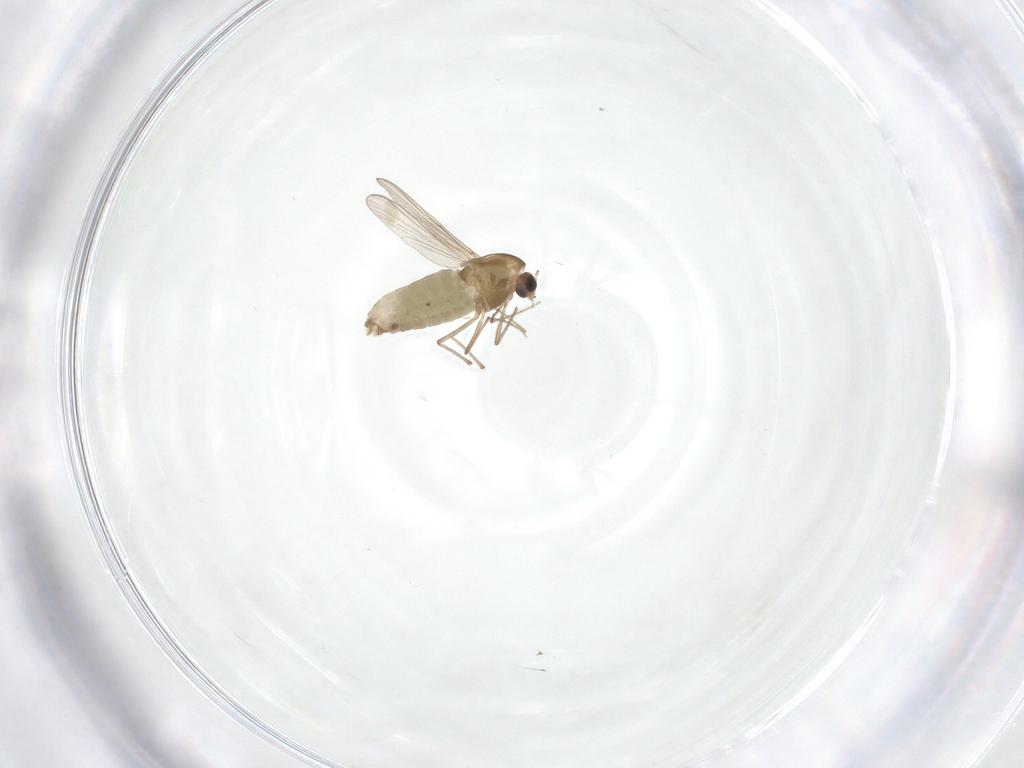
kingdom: Animalia
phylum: Arthropoda
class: Insecta
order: Diptera
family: Chironomidae
